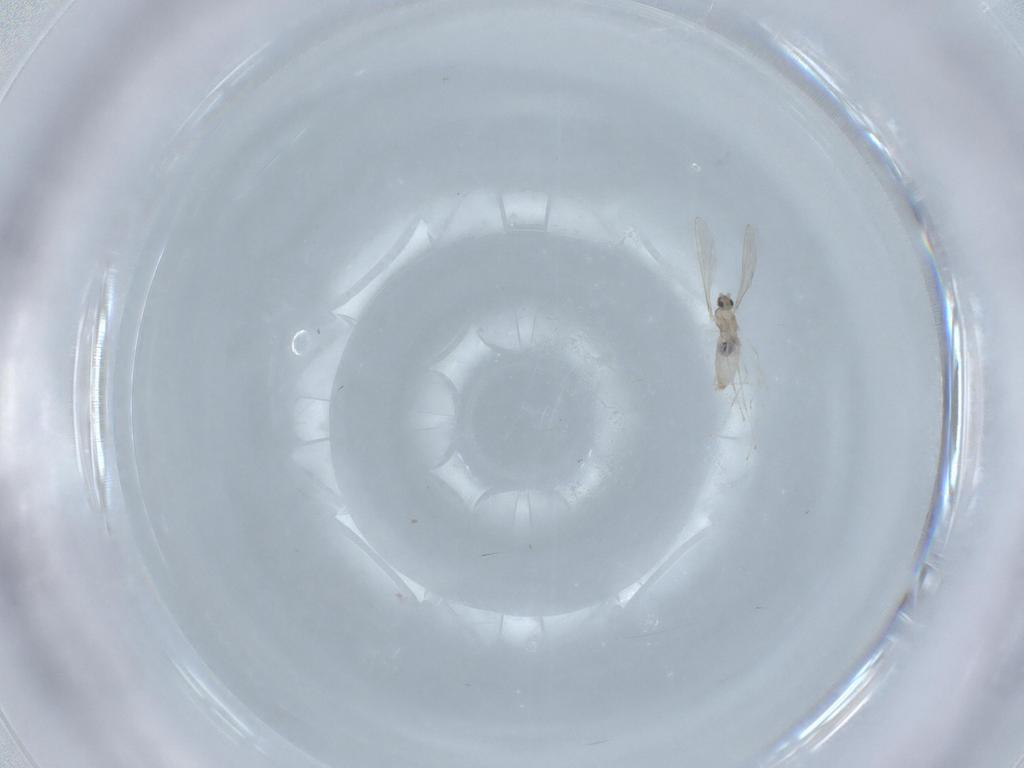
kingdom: Animalia
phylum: Arthropoda
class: Insecta
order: Diptera
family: Cecidomyiidae
